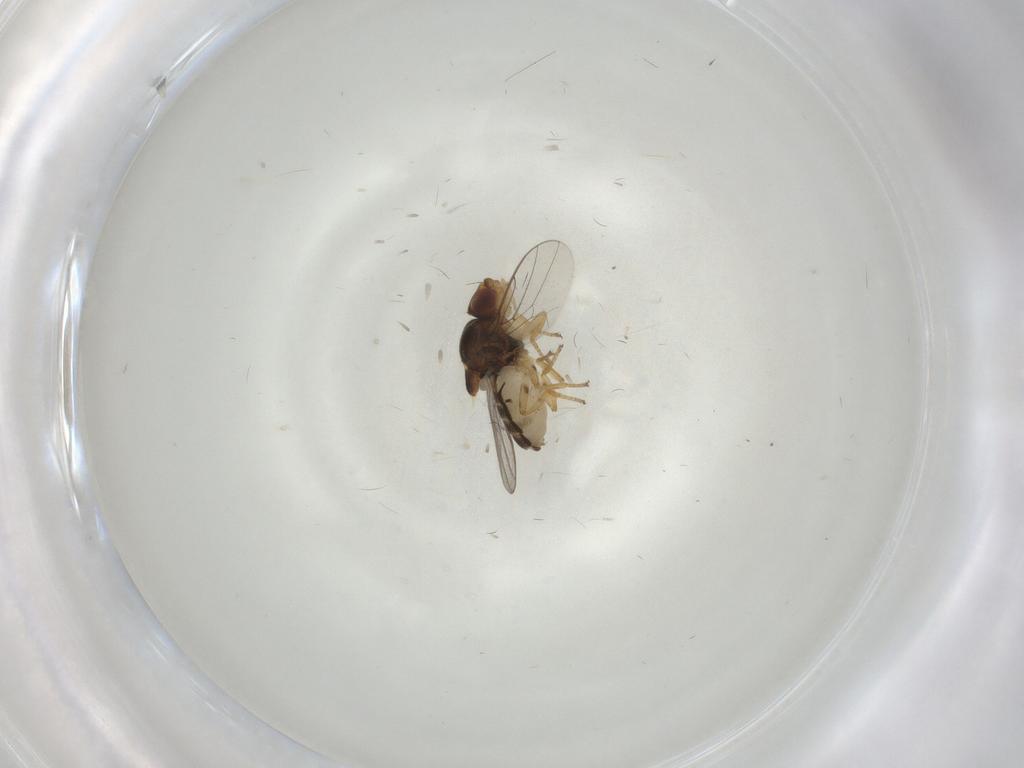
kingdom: Animalia
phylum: Arthropoda
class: Insecta
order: Diptera
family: Chloropidae
